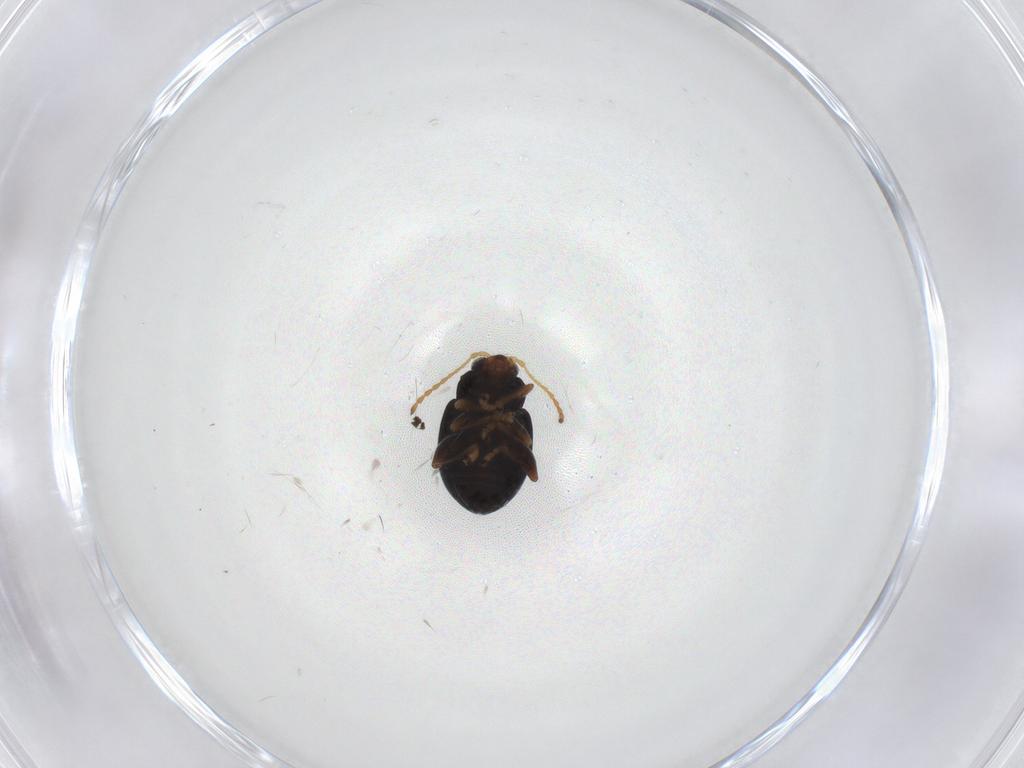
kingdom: Animalia
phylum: Arthropoda
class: Insecta
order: Coleoptera
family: Chrysomelidae
